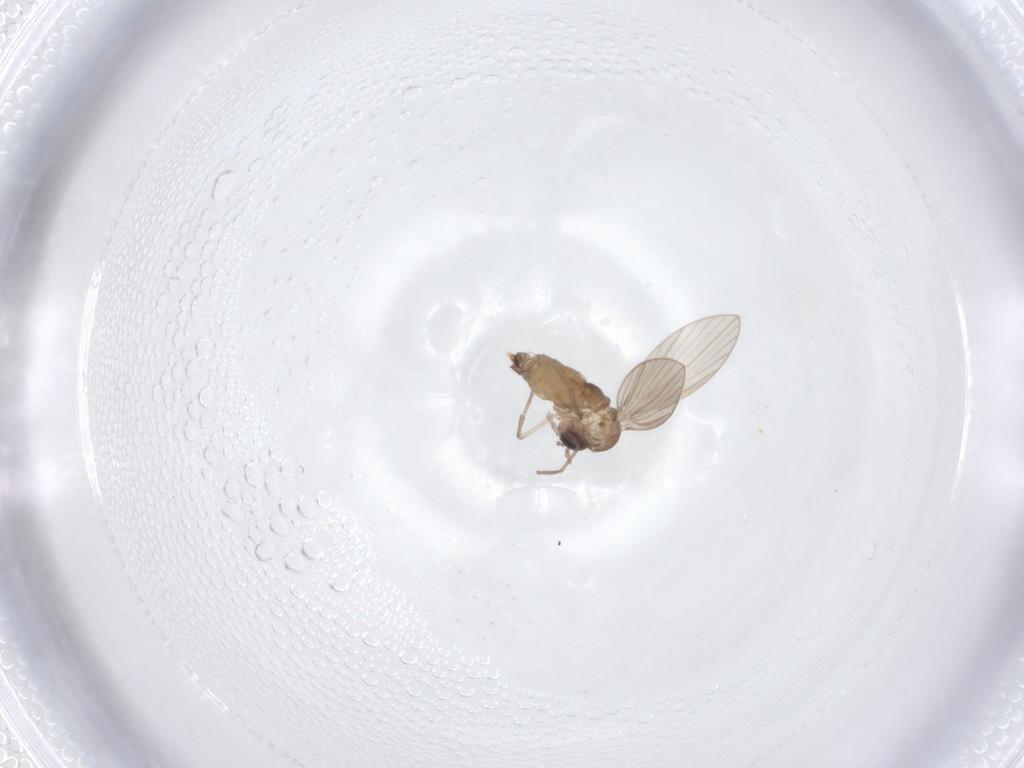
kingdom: Animalia
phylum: Arthropoda
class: Insecta
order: Diptera
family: Psychodidae
